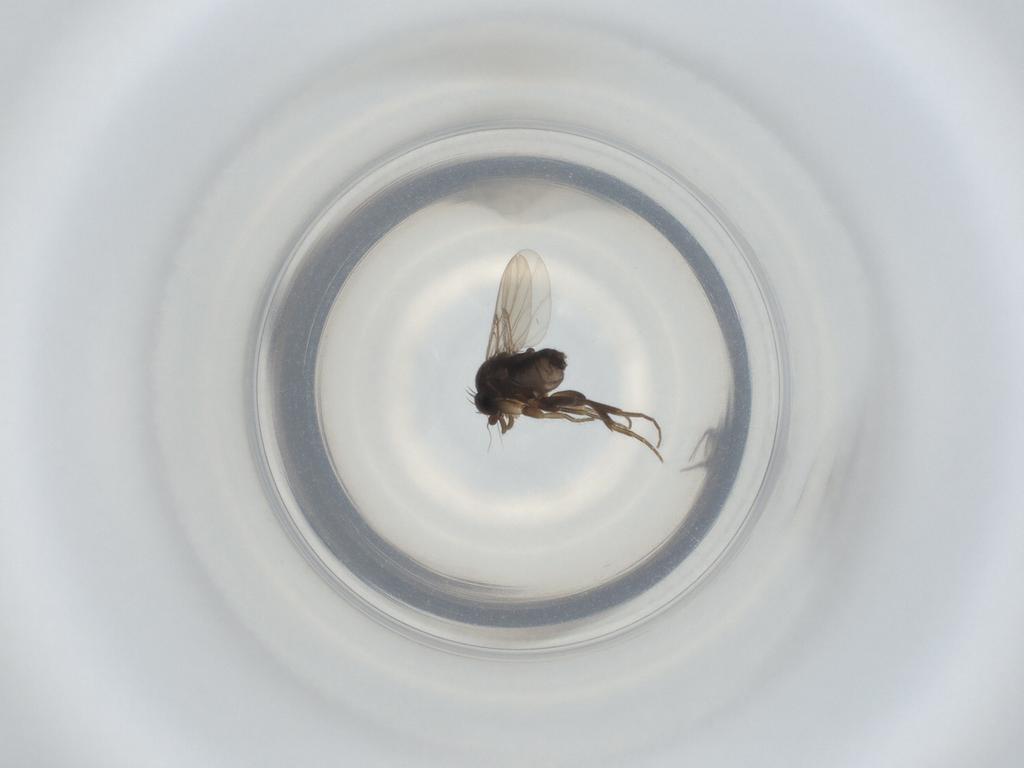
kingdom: Animalia
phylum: Arthropoda
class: Insecta
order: Diptera
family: Phoridae
